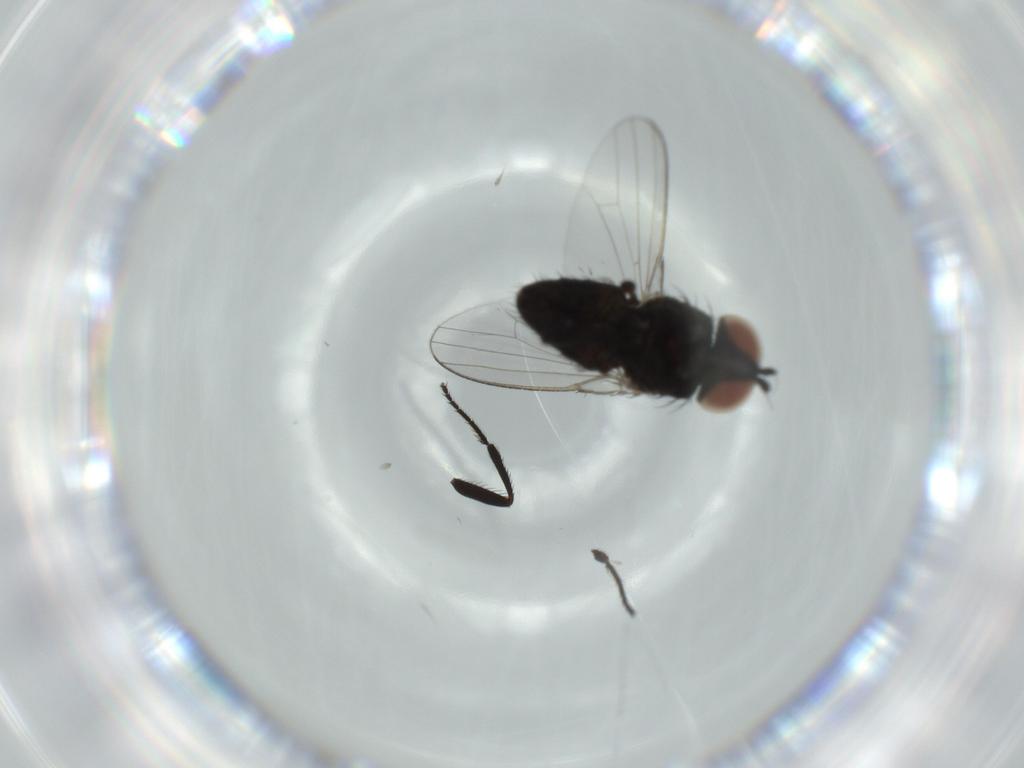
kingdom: Animalia
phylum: Arthropoda
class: Insecta
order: Diptera
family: Milichiidae
